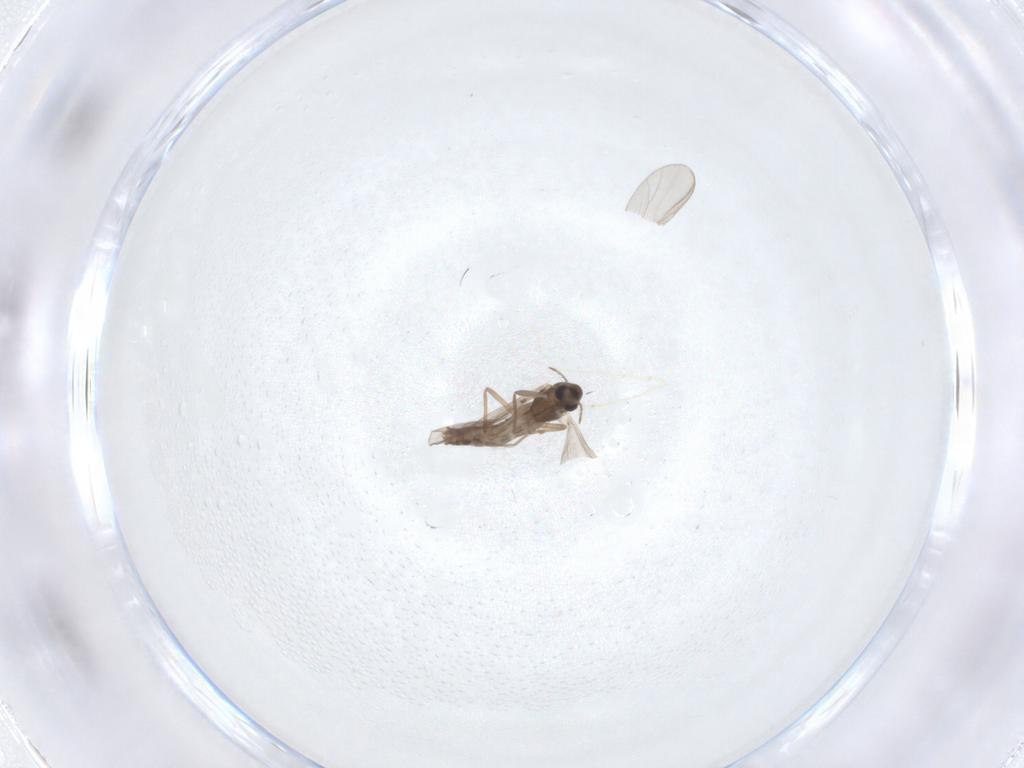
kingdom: Animalia
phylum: Arthropoda
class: Insecta
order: Diptera
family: Chironomidae
